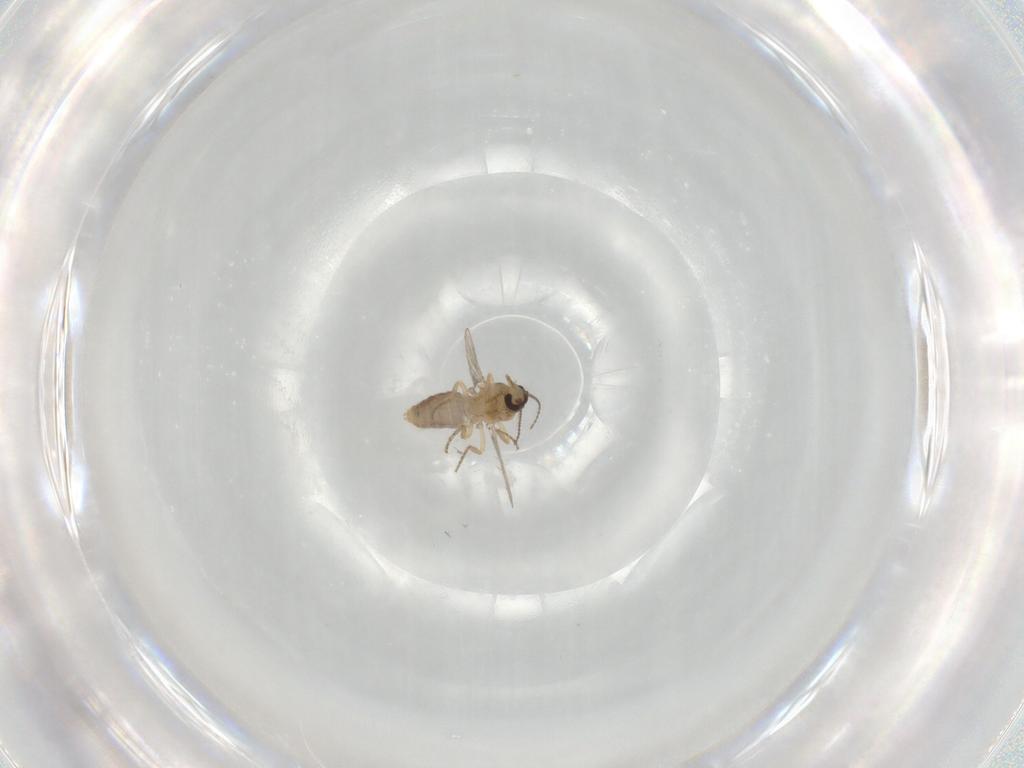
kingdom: Animalia
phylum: Arthropoda
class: Insecta
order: Diptera
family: Ceratopogonidae
